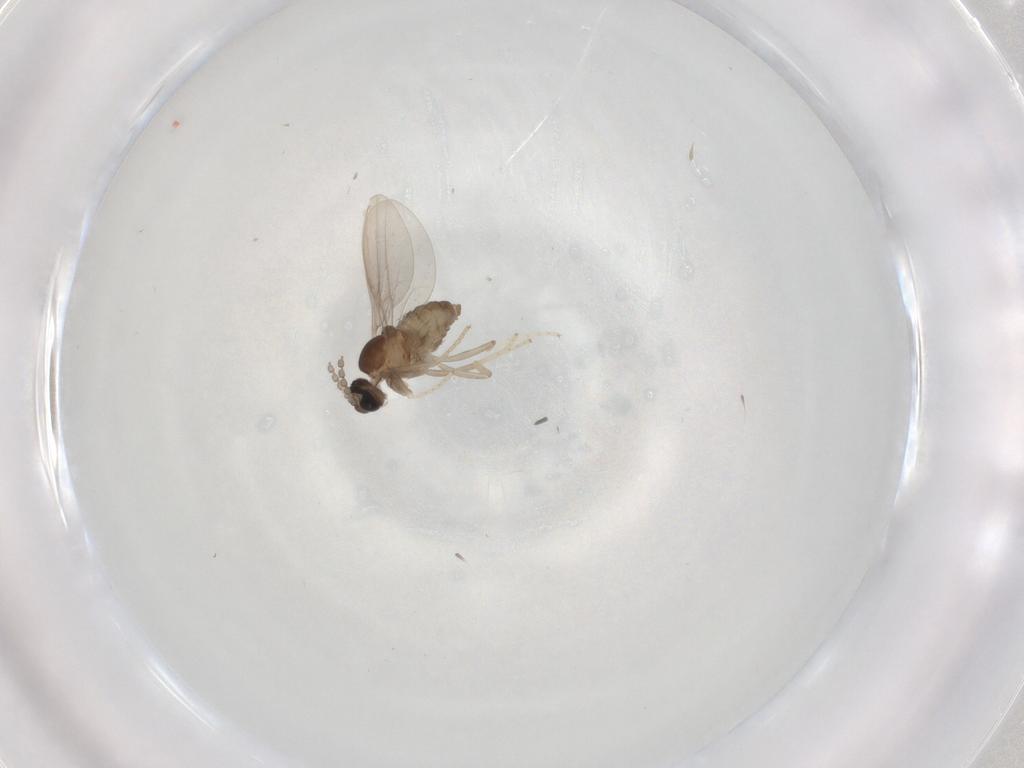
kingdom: Animalia
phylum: Arthropoda
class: Insecta
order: Diptera
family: Cecidomyiidae
